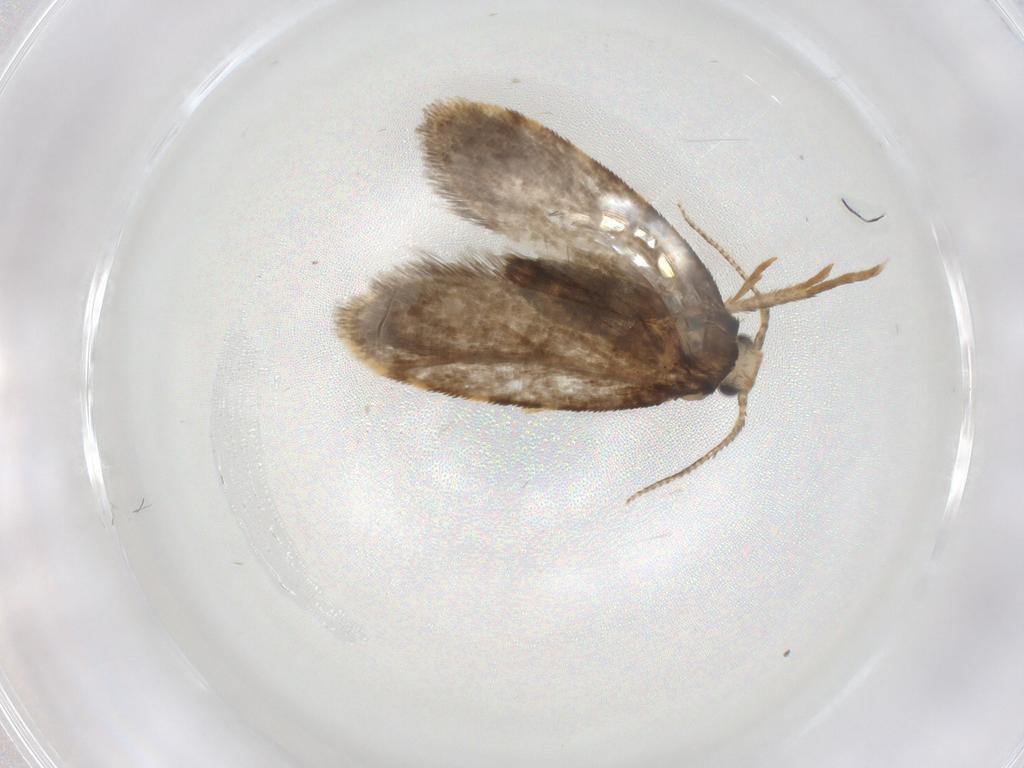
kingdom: Animalia
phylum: Arthropoda
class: Insecta
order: Lepidoptera
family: Psychidae
